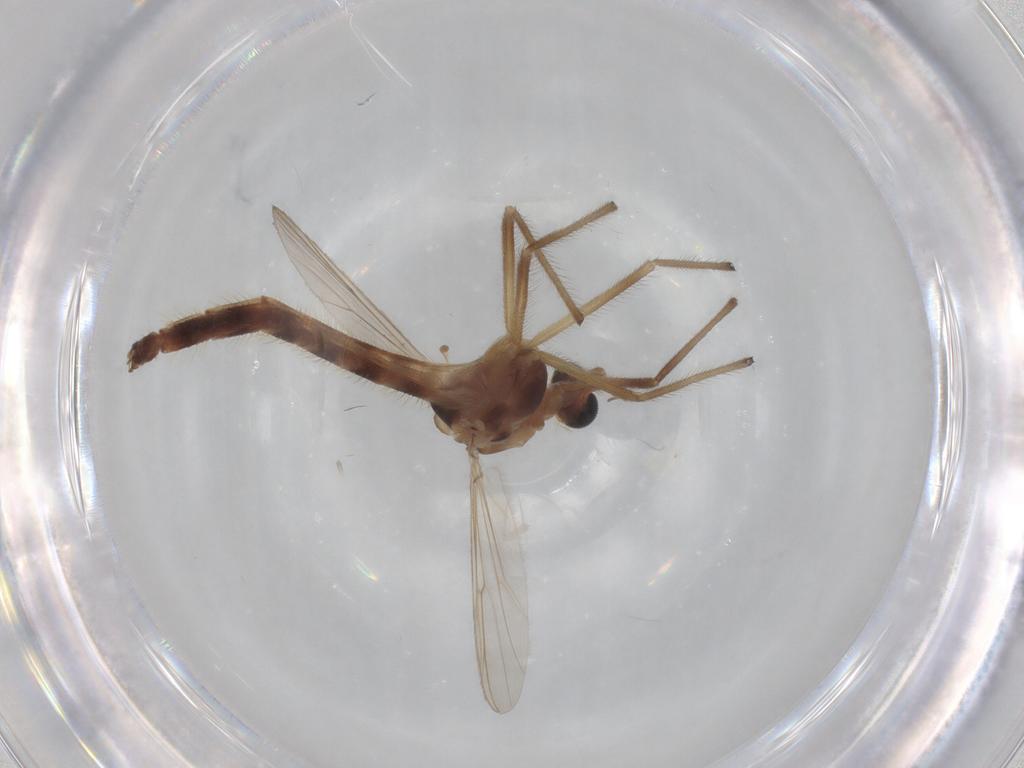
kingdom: Animalia
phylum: Arthropoda
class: Insecta
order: Diptera
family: Chironomidae
